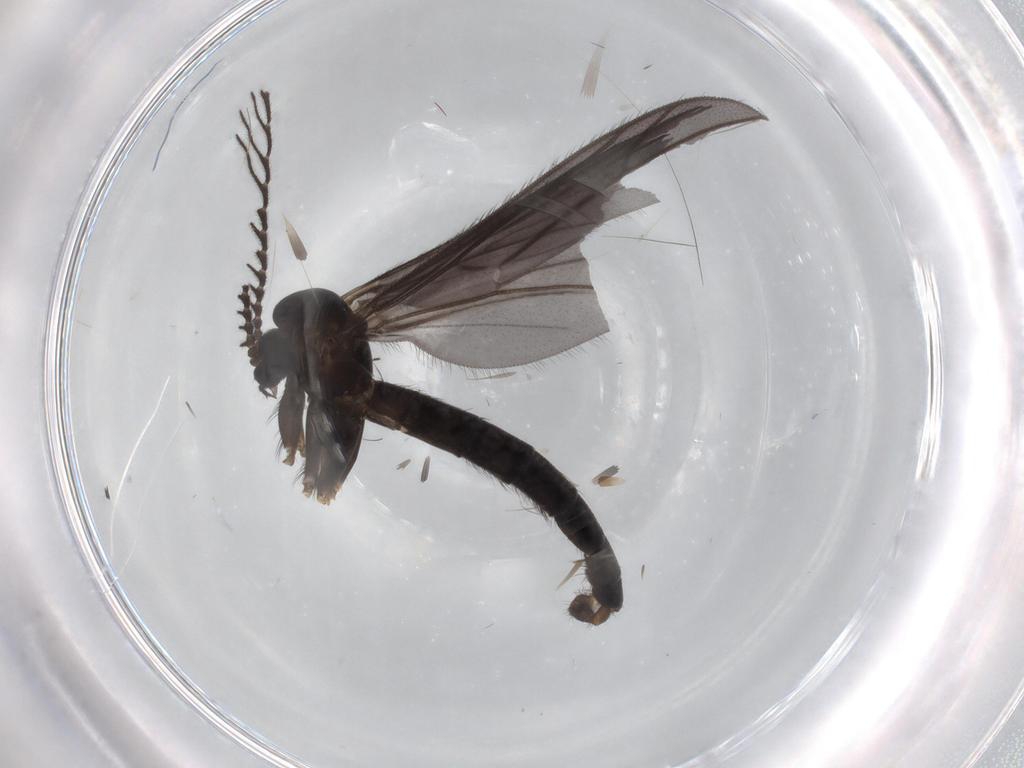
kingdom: Animalia
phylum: Arthropoda
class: Insecta
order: Diptera
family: Ditomyiidae
